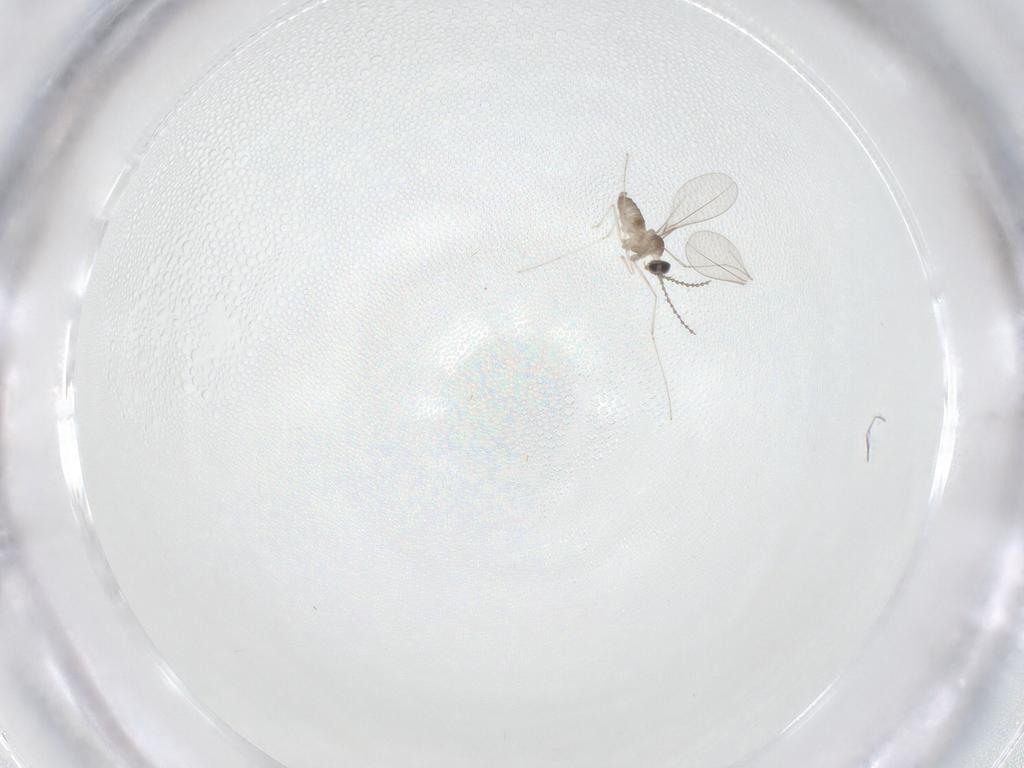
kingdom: Animalia
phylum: Arthropoda
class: Insecta
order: Diptera
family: Cecidomyiidae
